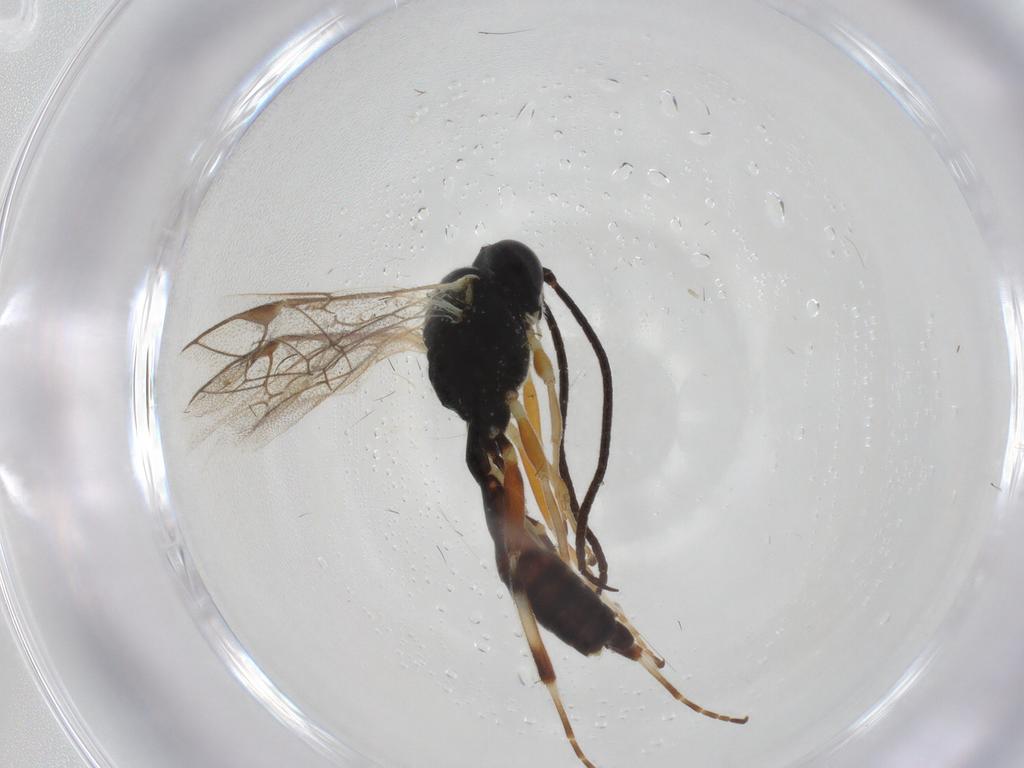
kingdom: Animalia
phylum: Arthropoda
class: Insecta
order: Hymenoptera
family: Ichneumonidae
